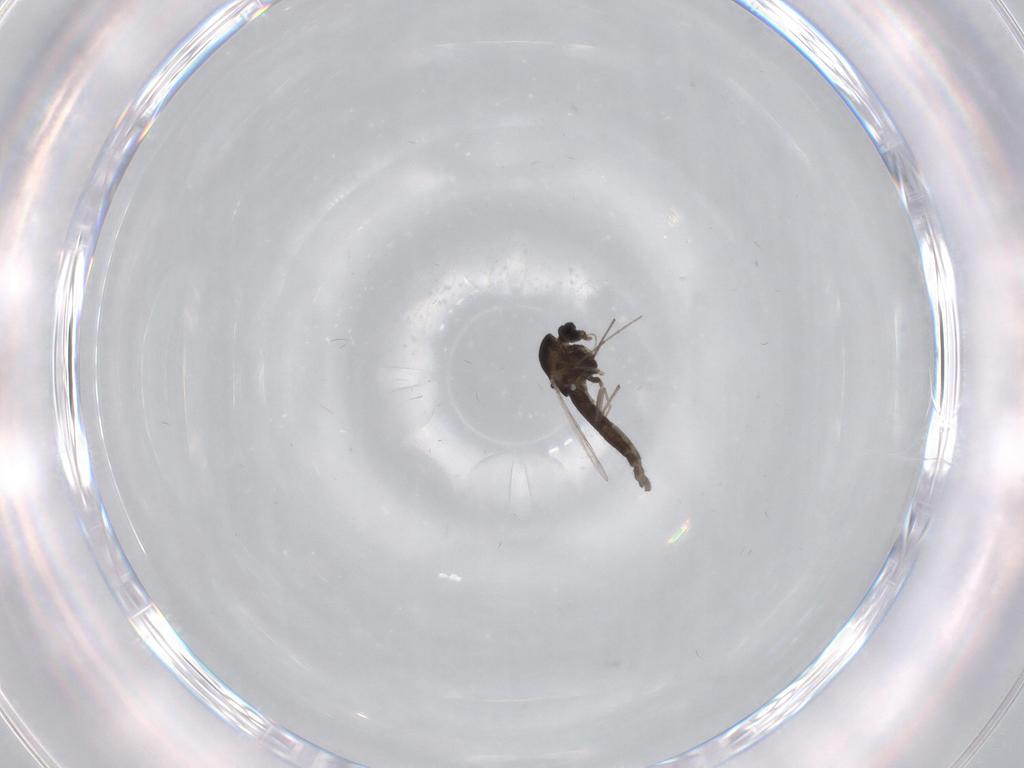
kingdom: Animalia
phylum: Arthropoda
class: Insecta
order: Diptera
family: Chironomidae
